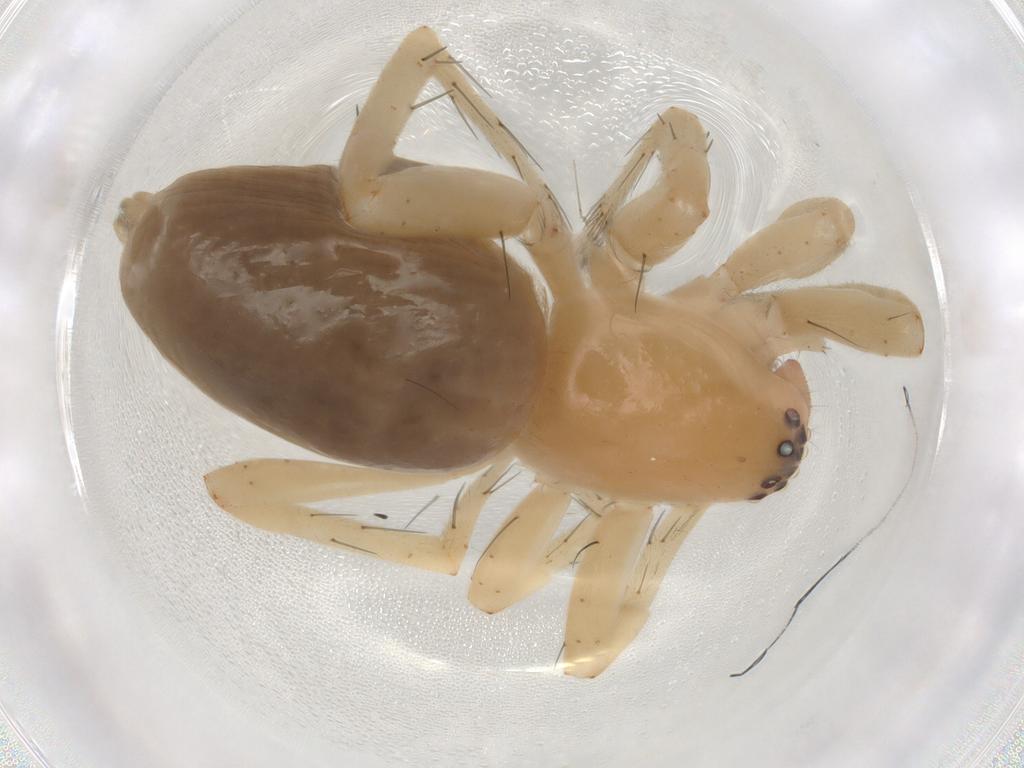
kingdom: Animalia
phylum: Arthropoda
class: Arachnida
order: Araneae
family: Clubionidae
